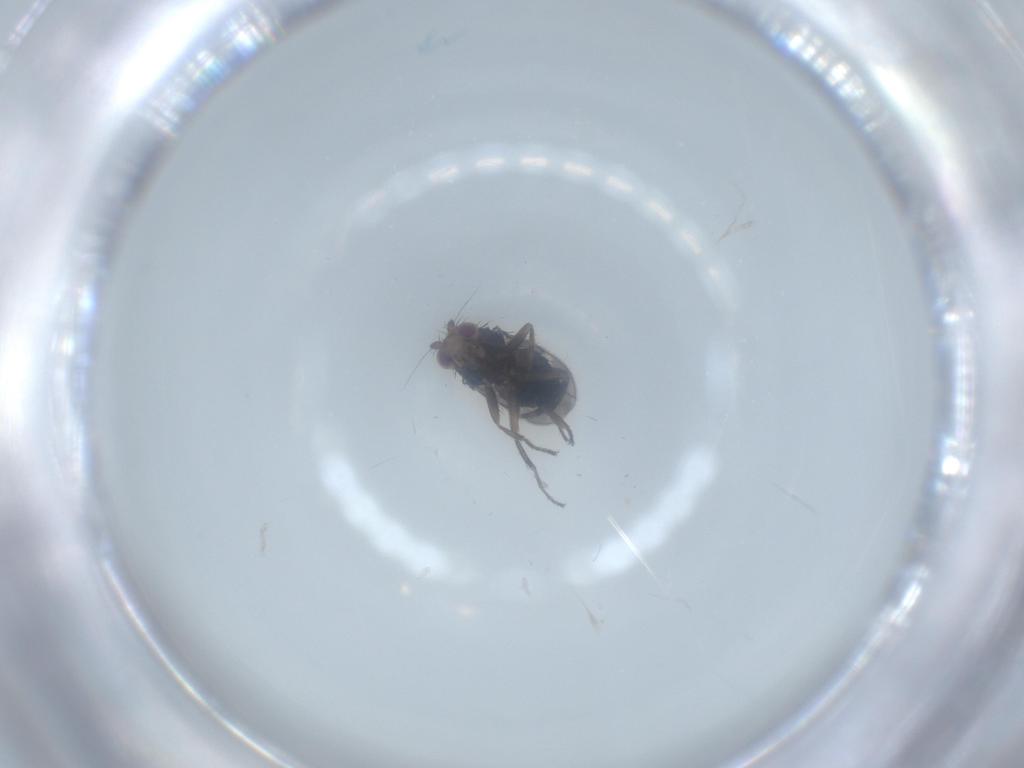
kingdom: Animalia
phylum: Arthropoda
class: Insecta
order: Diptera
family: Sphaeroceridae
